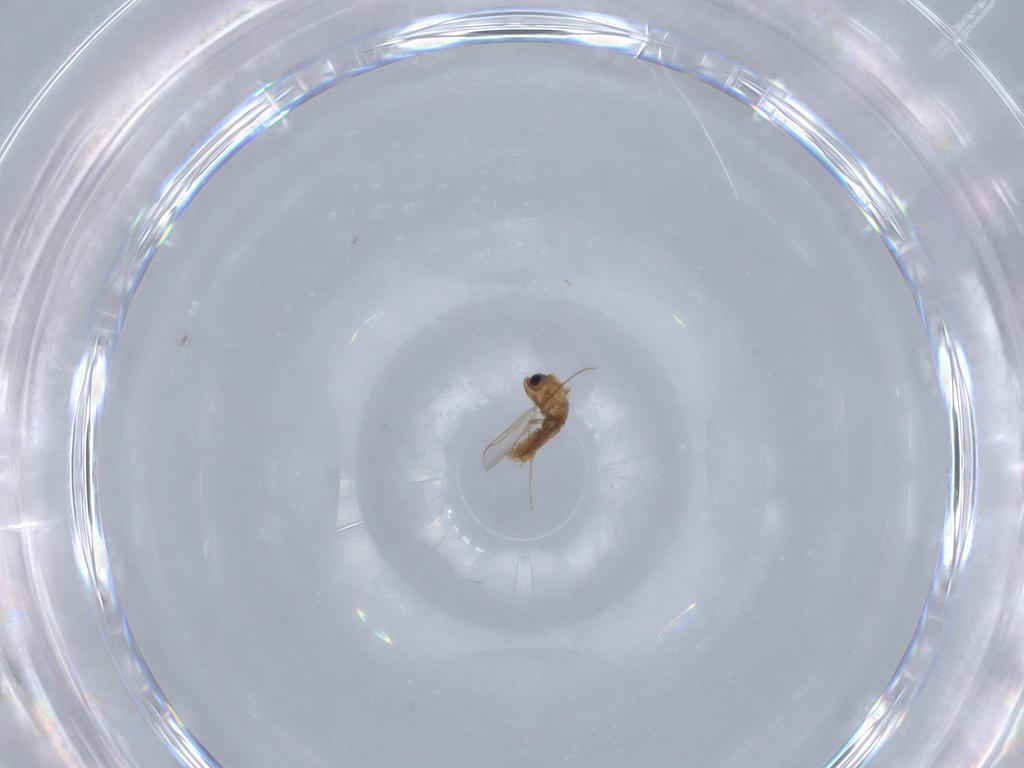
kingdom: Animalia
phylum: Arthropoda
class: Insecta
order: Diptera
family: Chironomidae
